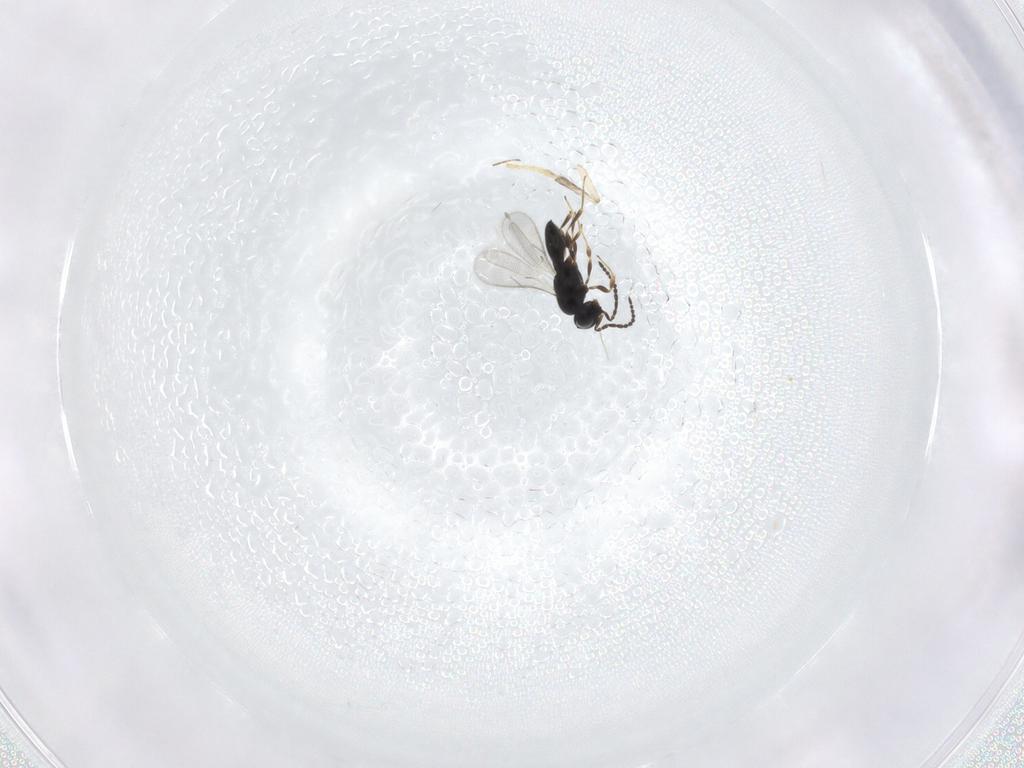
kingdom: Animalia
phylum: Arthropoda
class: Insecta
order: Hymenoptera
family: Scelionidae
